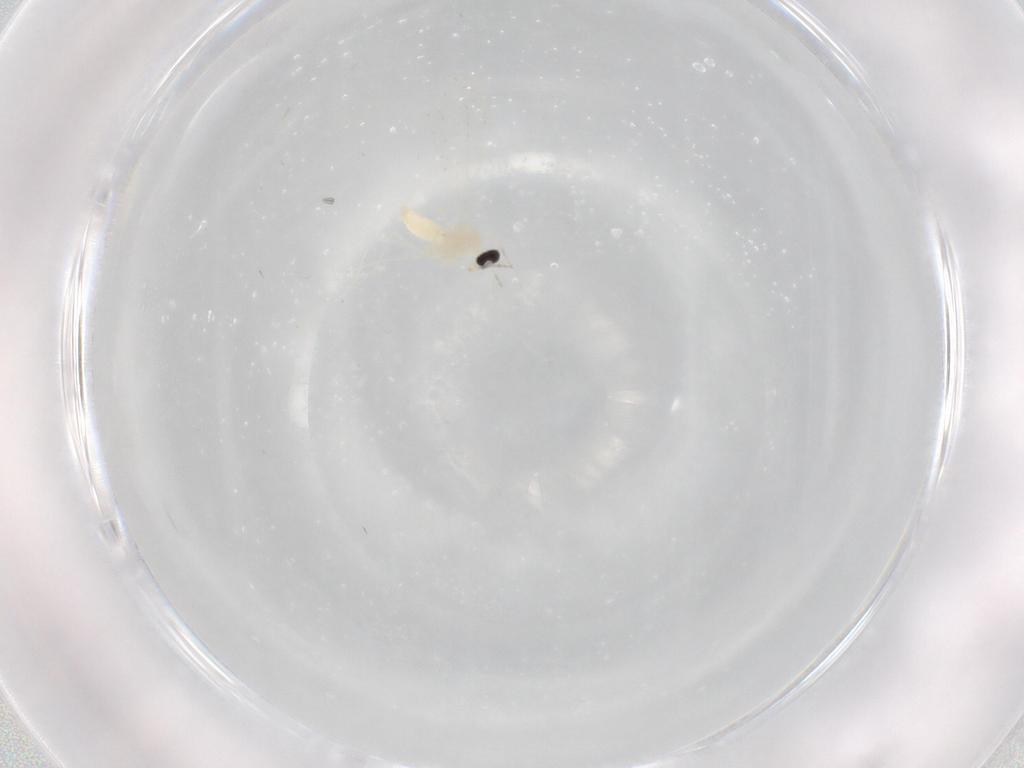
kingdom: Animalia
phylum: Arthropoda
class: Insecta
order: Diptera
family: Cecidomyiidae
